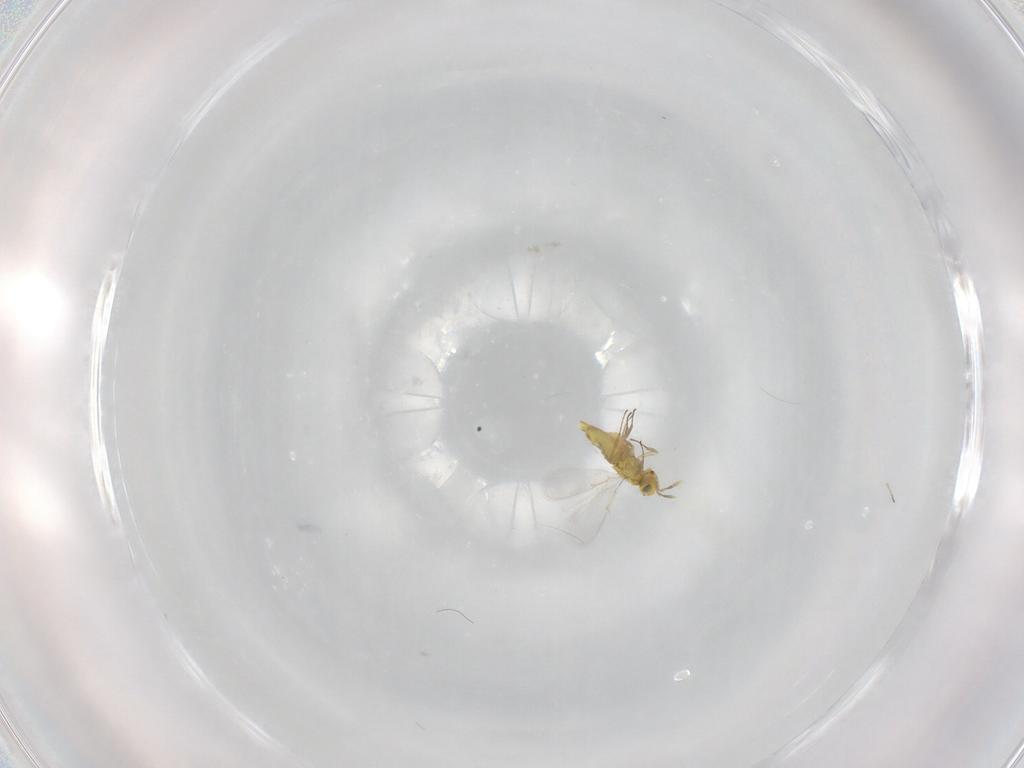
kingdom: Animalia
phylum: Arthropoda
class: Insecta
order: Hymenoptera
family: Aphelinidae
